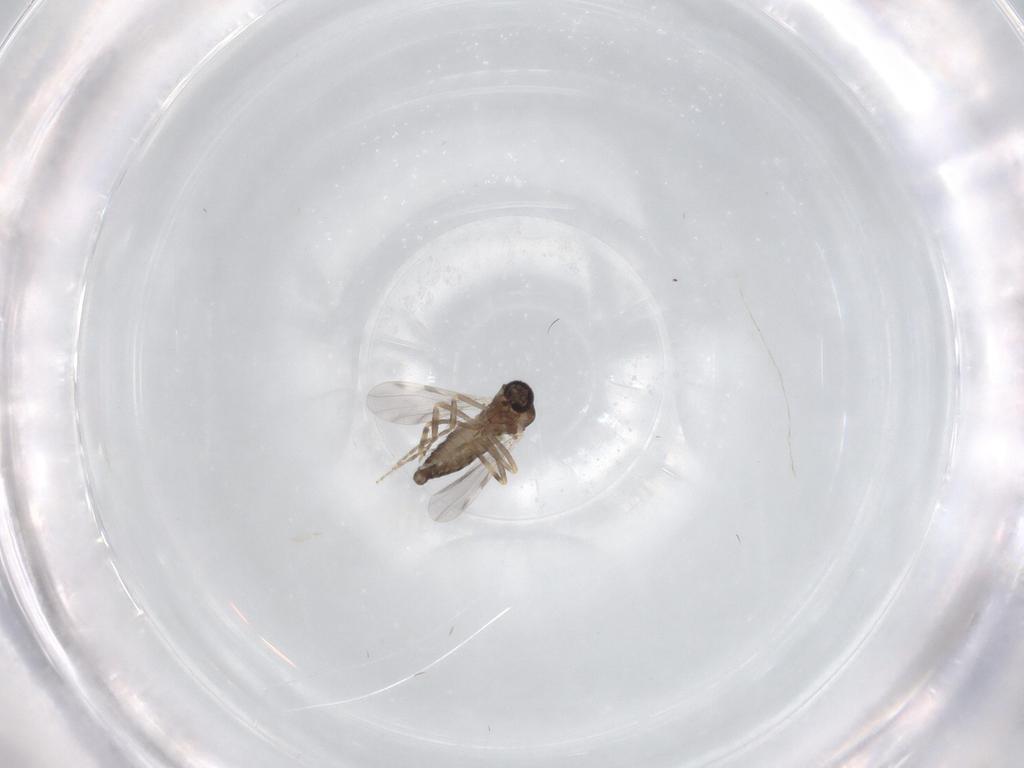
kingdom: Animalia
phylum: Arthropoda
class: Insecta
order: Diptera
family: Ceratopogonidae
